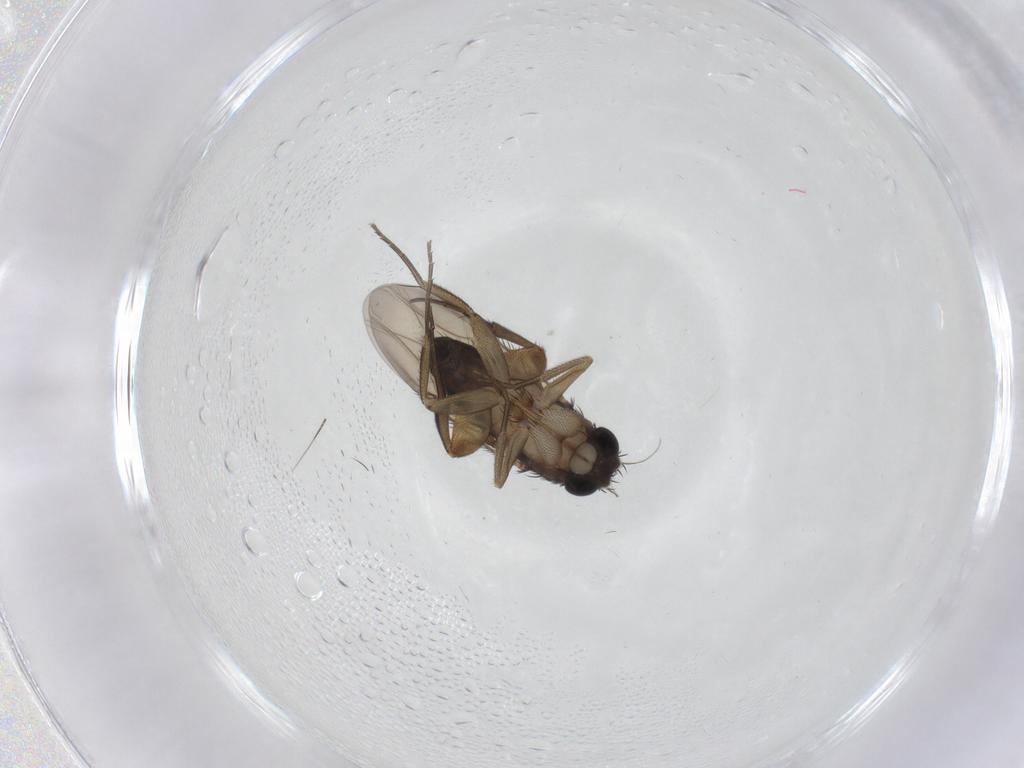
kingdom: Animalia
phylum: Arthropoda
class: Insecta
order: Diptera
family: Phoridae
